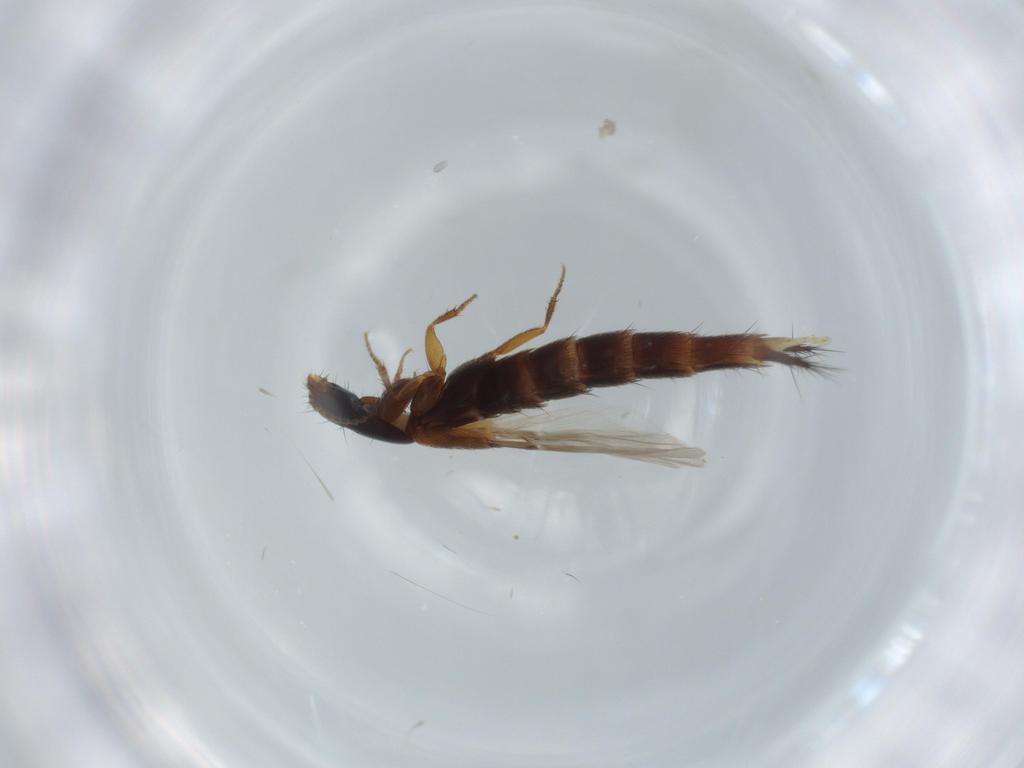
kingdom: Animalia
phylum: Arthropoda
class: Insecta
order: Coleoptera
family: Staphylinidae
